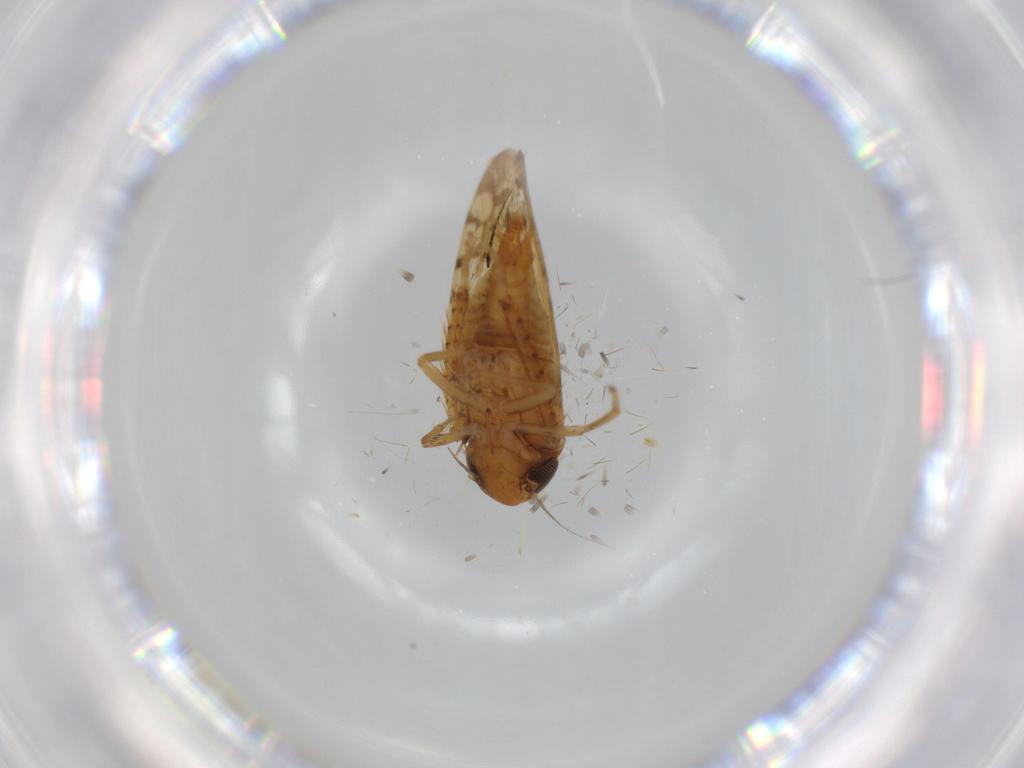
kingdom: Animalia
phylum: Arthropoda
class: Insecta
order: Hemiptera
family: Cicadellidae
